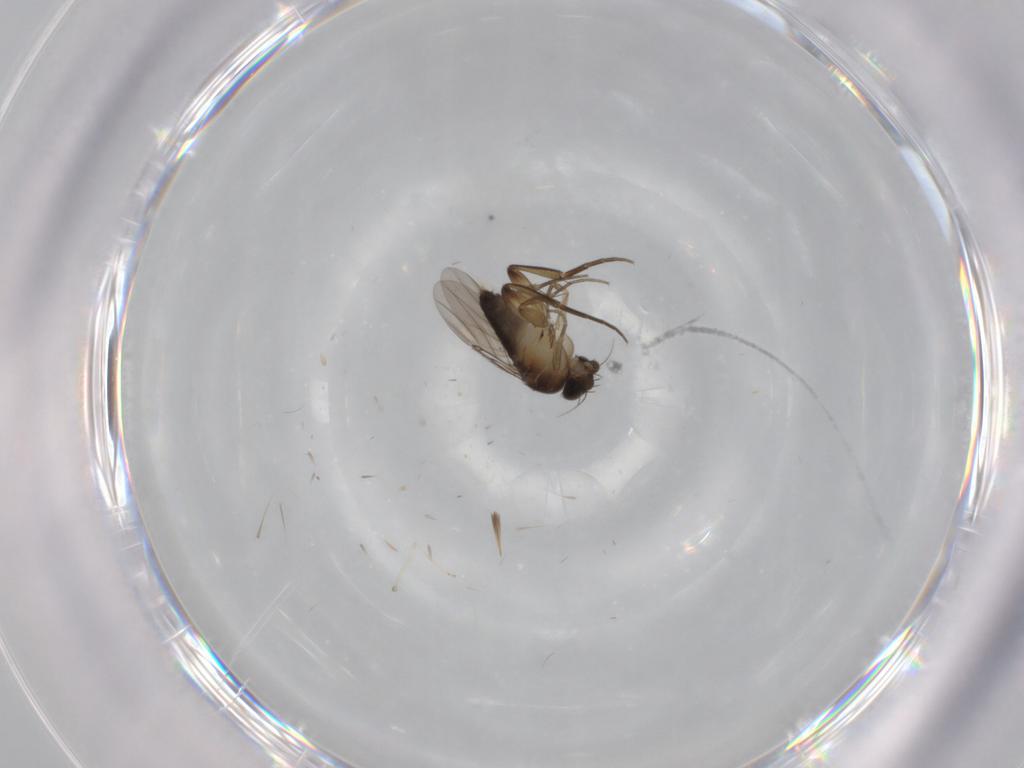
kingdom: Animalia
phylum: Arthropoda
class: Insecta
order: Diptera
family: Phoridae
